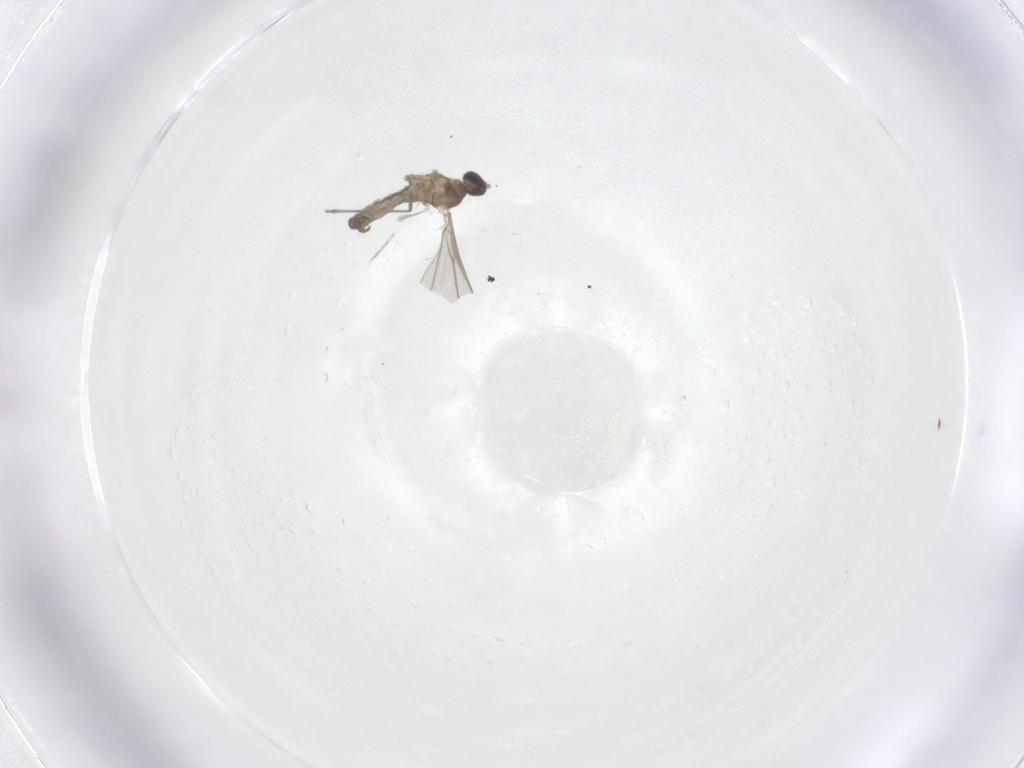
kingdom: Animalia
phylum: Arthropoda
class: Insecta
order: Diptera
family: Cecidomyiidae
